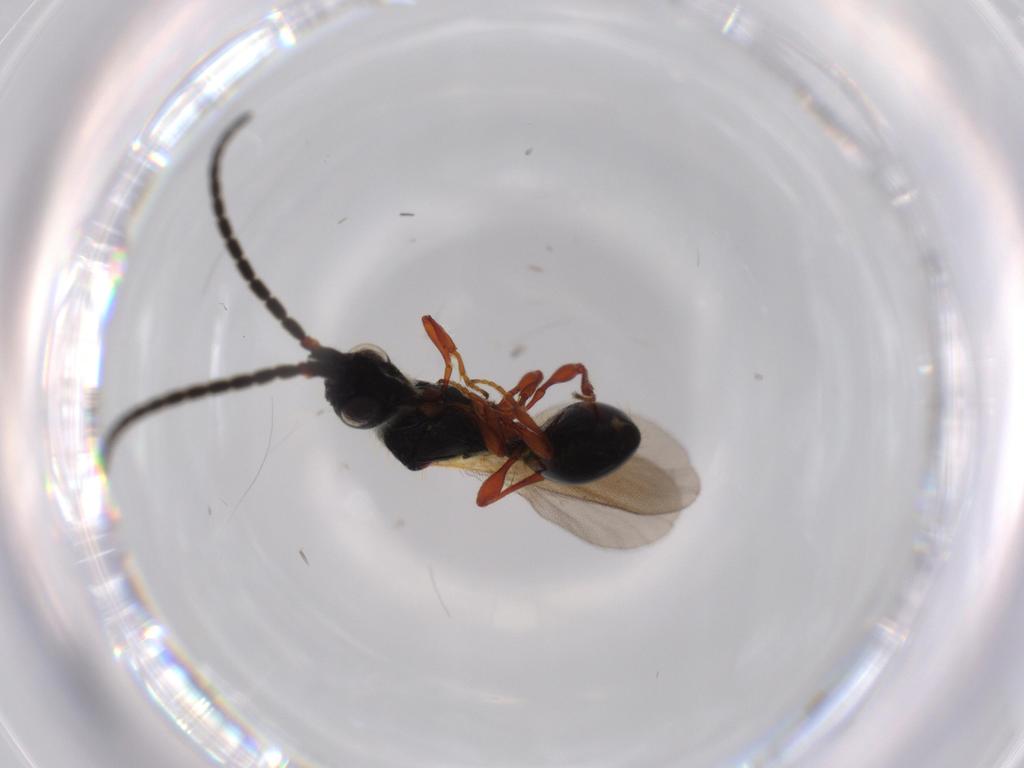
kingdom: Animalia
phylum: Arthropoda
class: Insecta
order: Hymenoptera
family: Diapriidae
